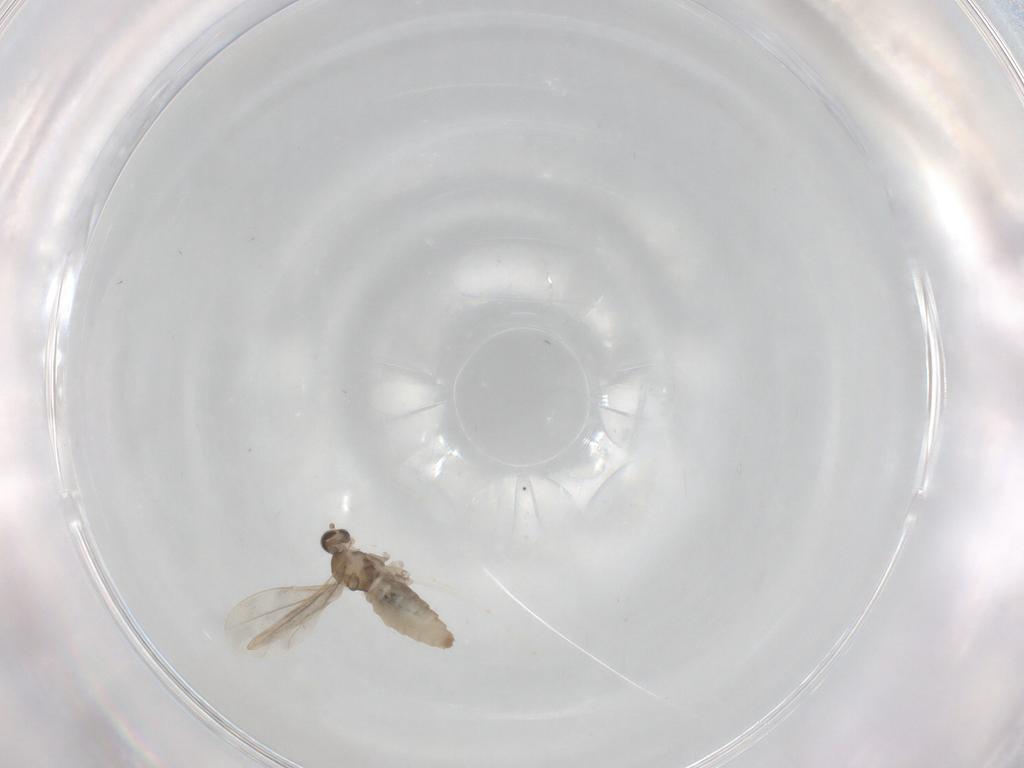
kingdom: Animalia
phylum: Arthropoda
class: Insecta
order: Diptera
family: Cecidomyiidae
